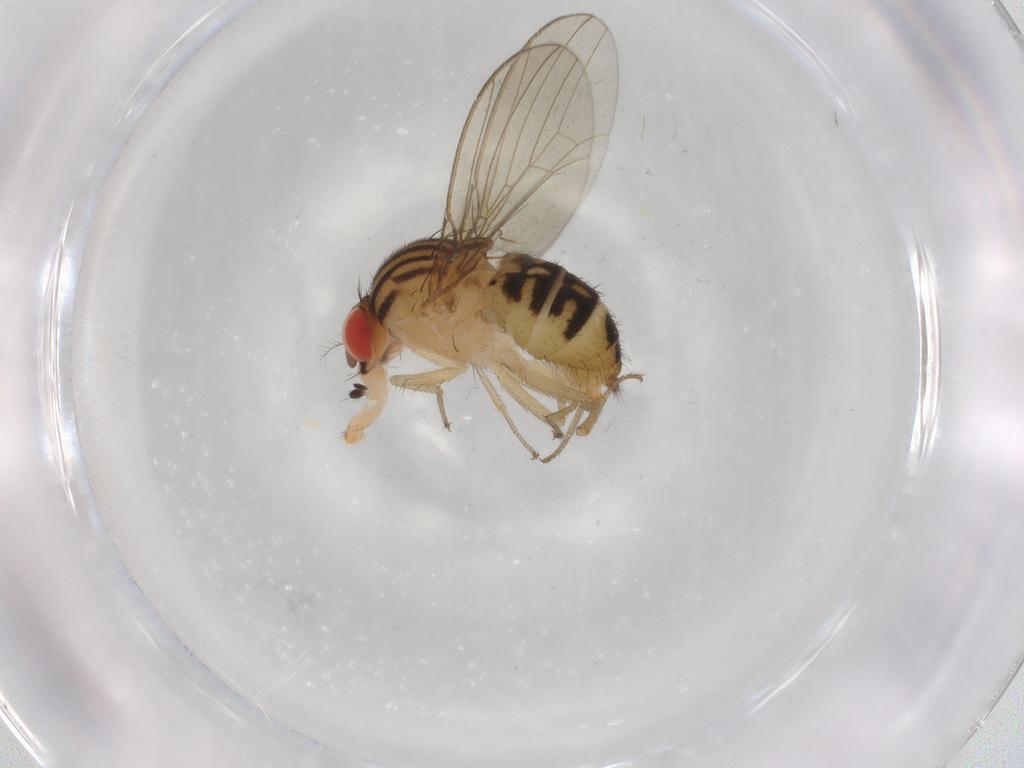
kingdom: Animalia
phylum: Arthropoda
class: Insecta
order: Diptera
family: Drosophilidae
